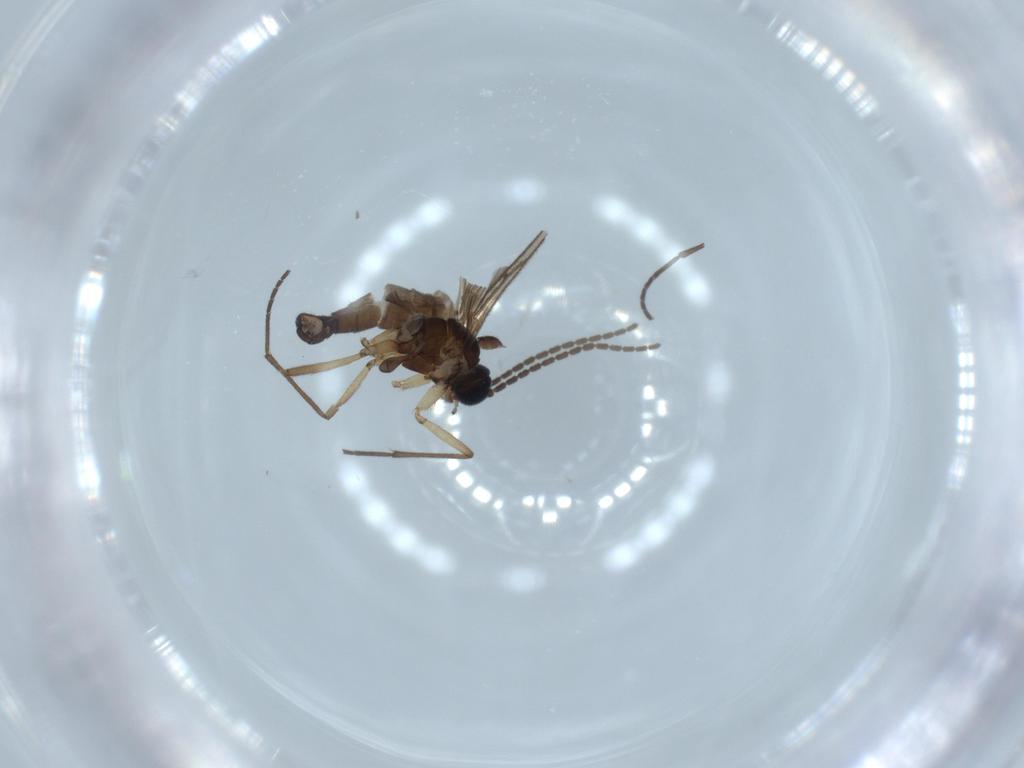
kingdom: Animalia
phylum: Arthropoda
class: Insecta
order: Diptera
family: Sciaridae
